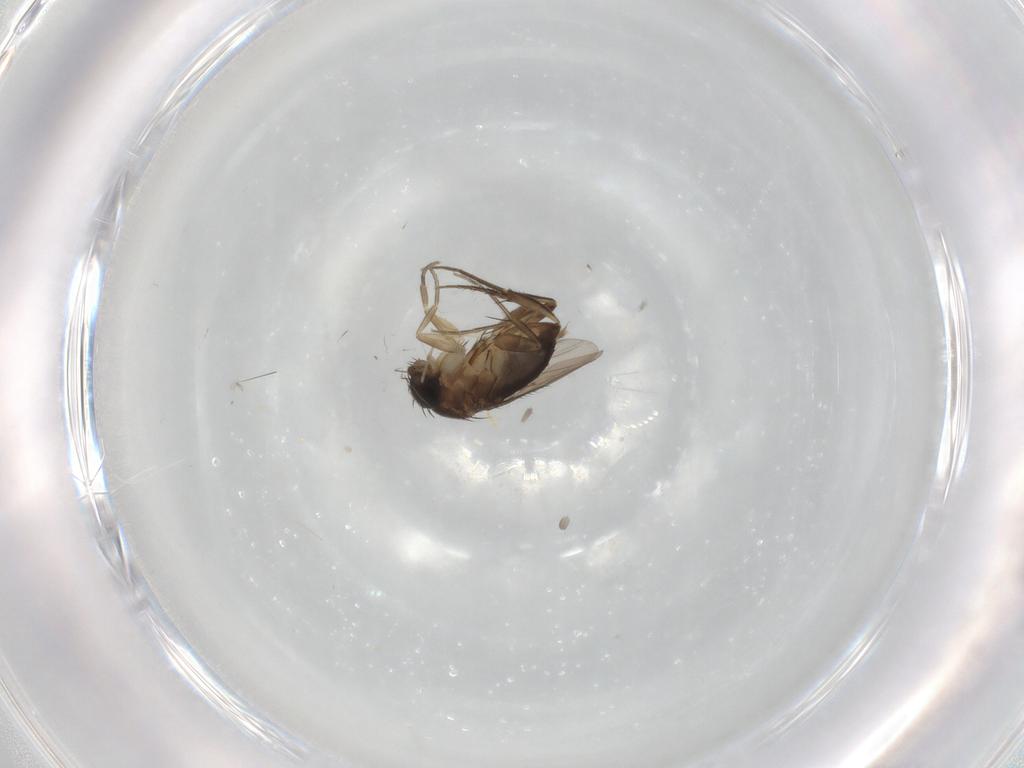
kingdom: Animalia
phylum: Arthropoda
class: Insecta
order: Diptera
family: Phoridae
